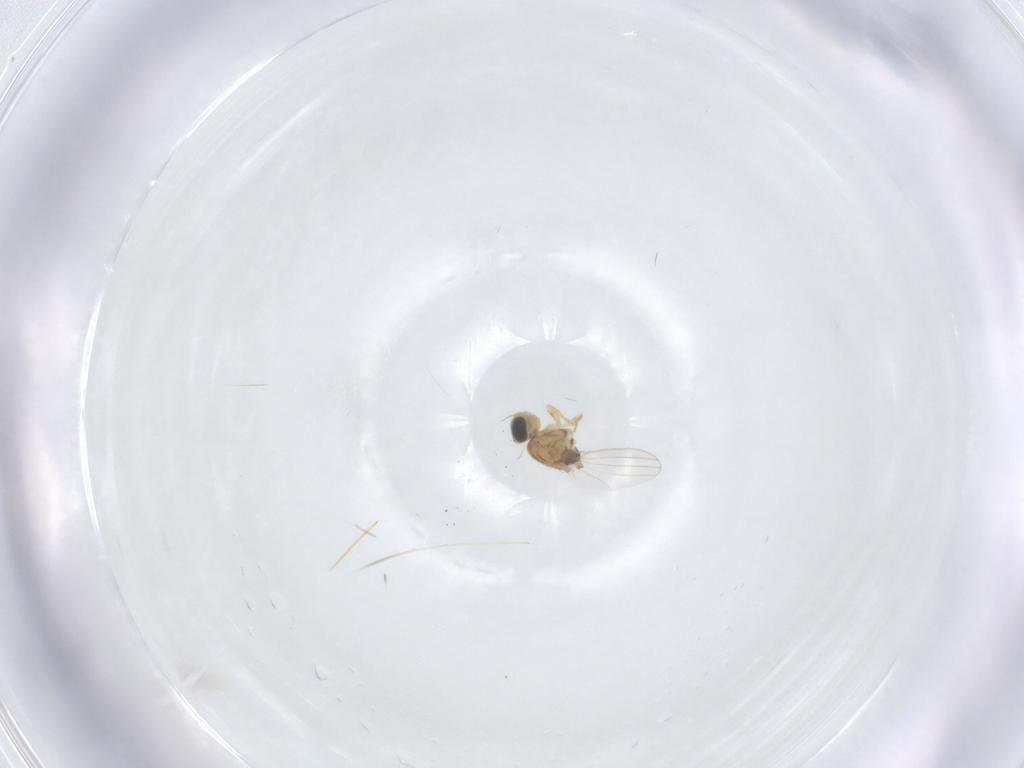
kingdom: Animalia
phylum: Arthropoda
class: Insecta
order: Diptera
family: Chyromyidae
